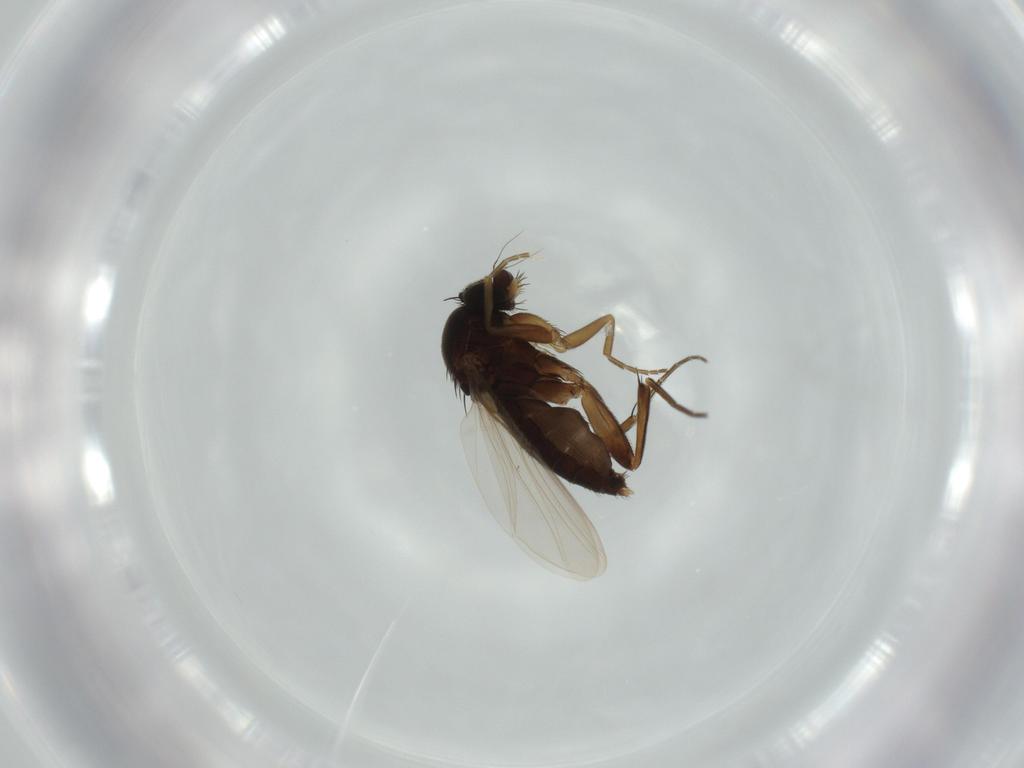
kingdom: Animalia
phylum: Arthropoda
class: Insecta
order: Diptera
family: Phoridae
